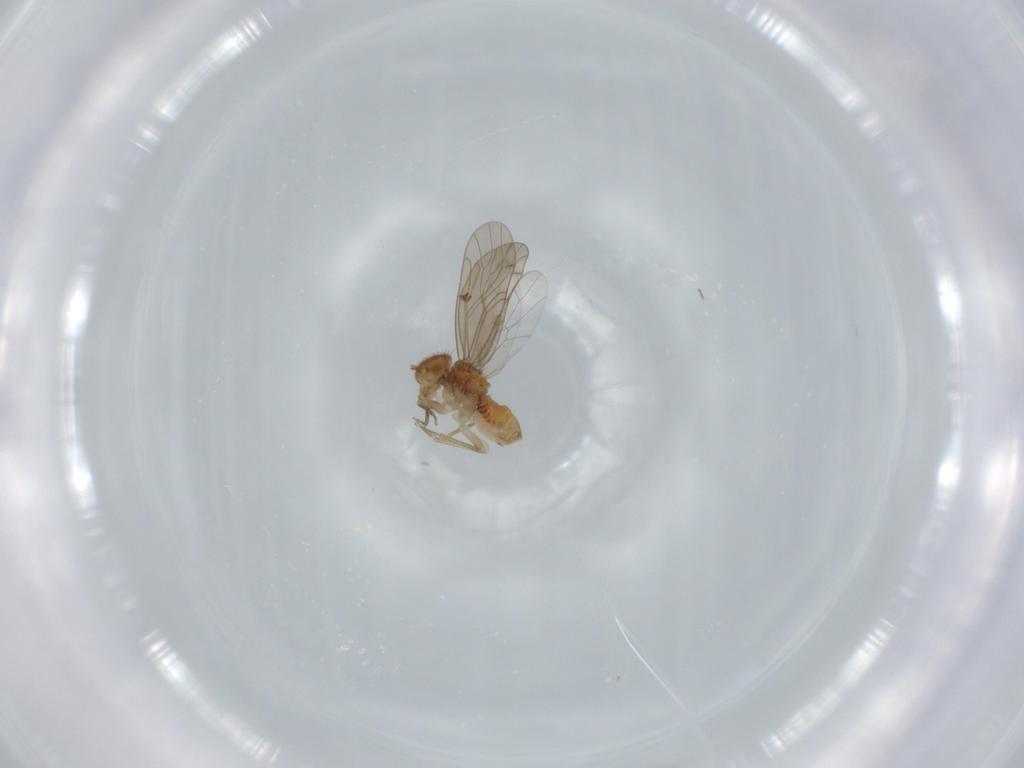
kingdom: Animalia
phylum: Arthropoda
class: Insecta
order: Psocodea
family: Ectopsocidae
